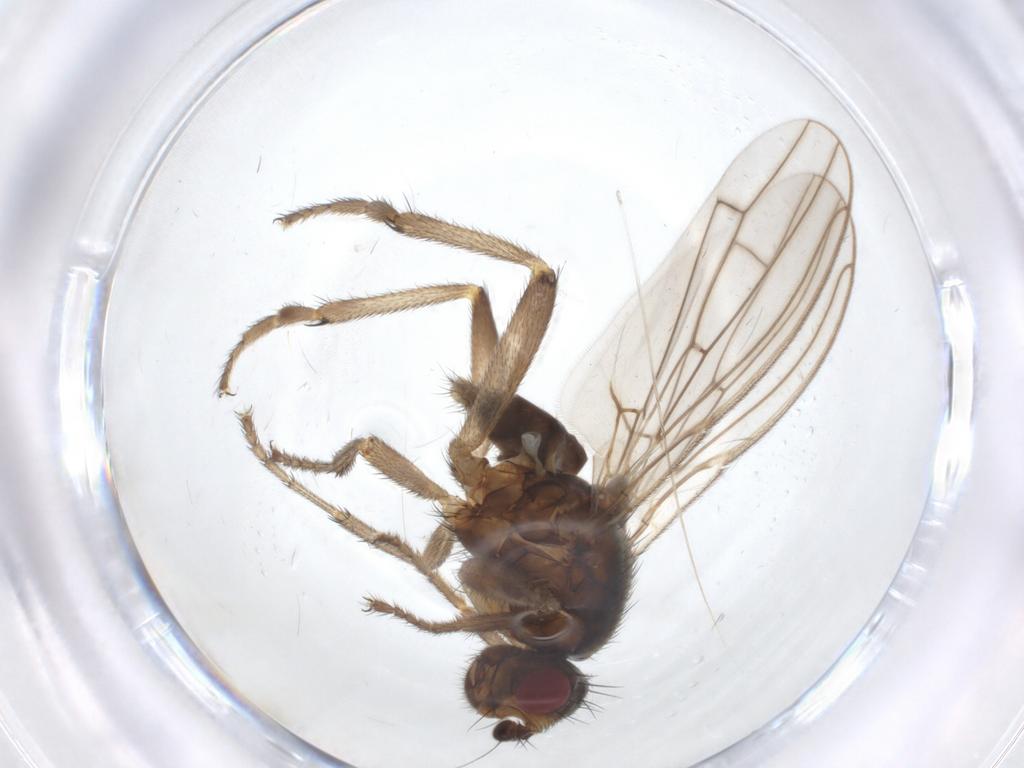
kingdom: Animalia
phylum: Arthropoda
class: Insecta
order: Diptera
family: Sphaeroceridae
